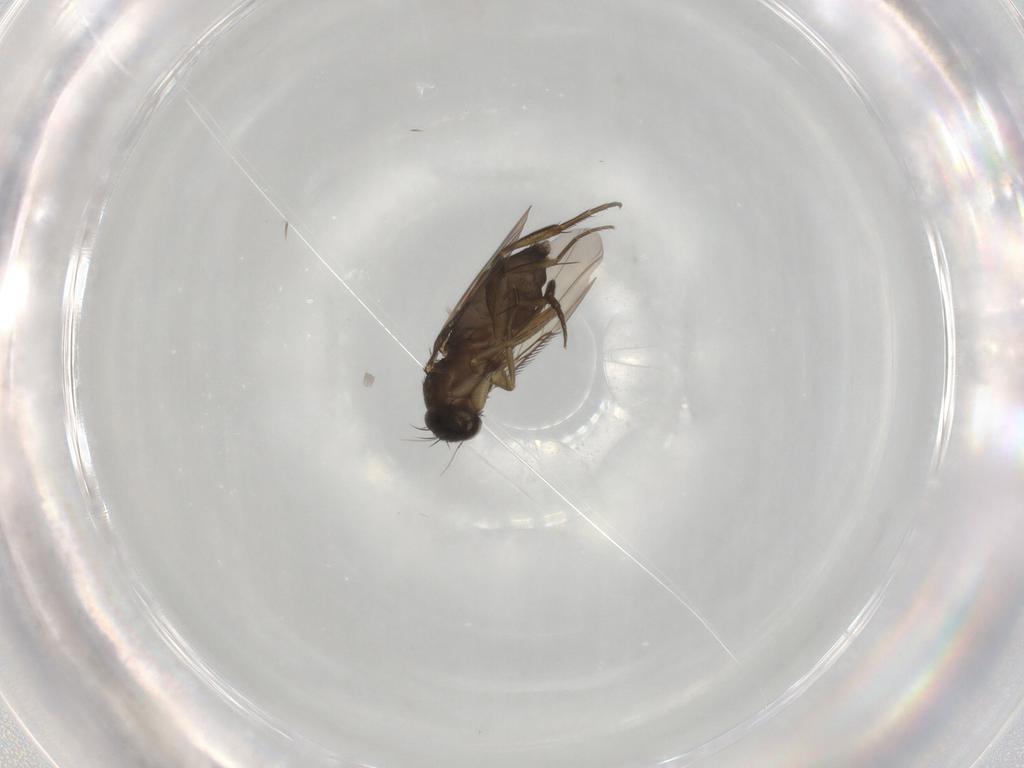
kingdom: Animalia
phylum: Arthropoda
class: Insecta
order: Diptera
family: Phoridae
